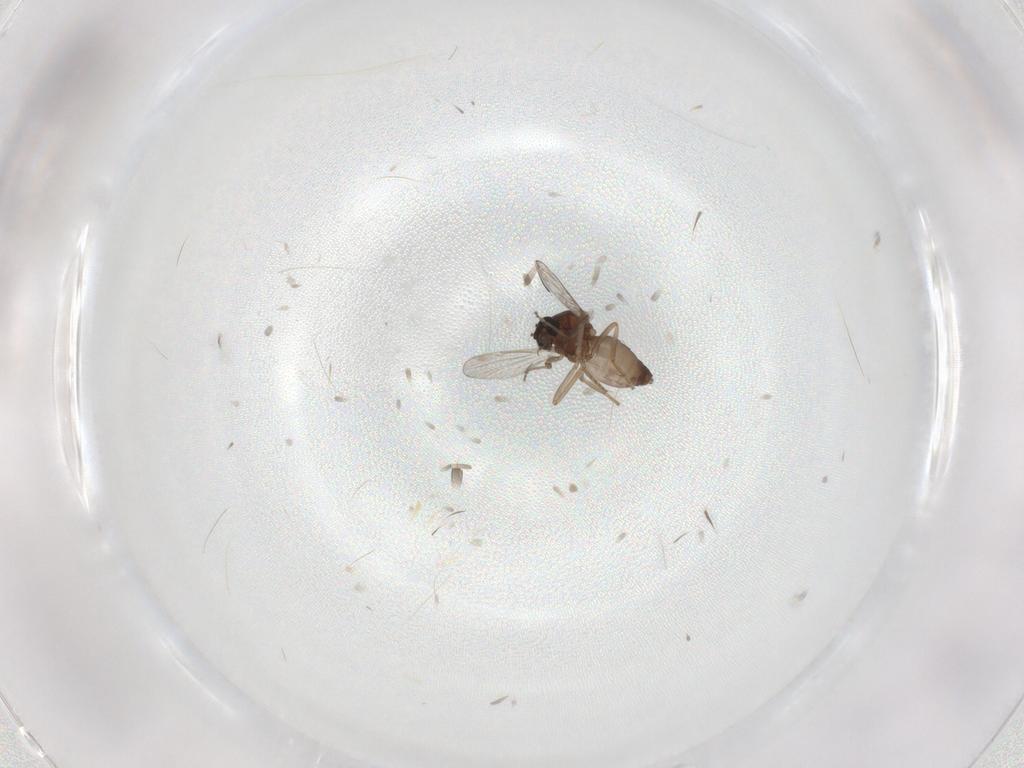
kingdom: Animalia
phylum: Arthropoda
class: Insecta
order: Diptera
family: Ceratopogonidae
